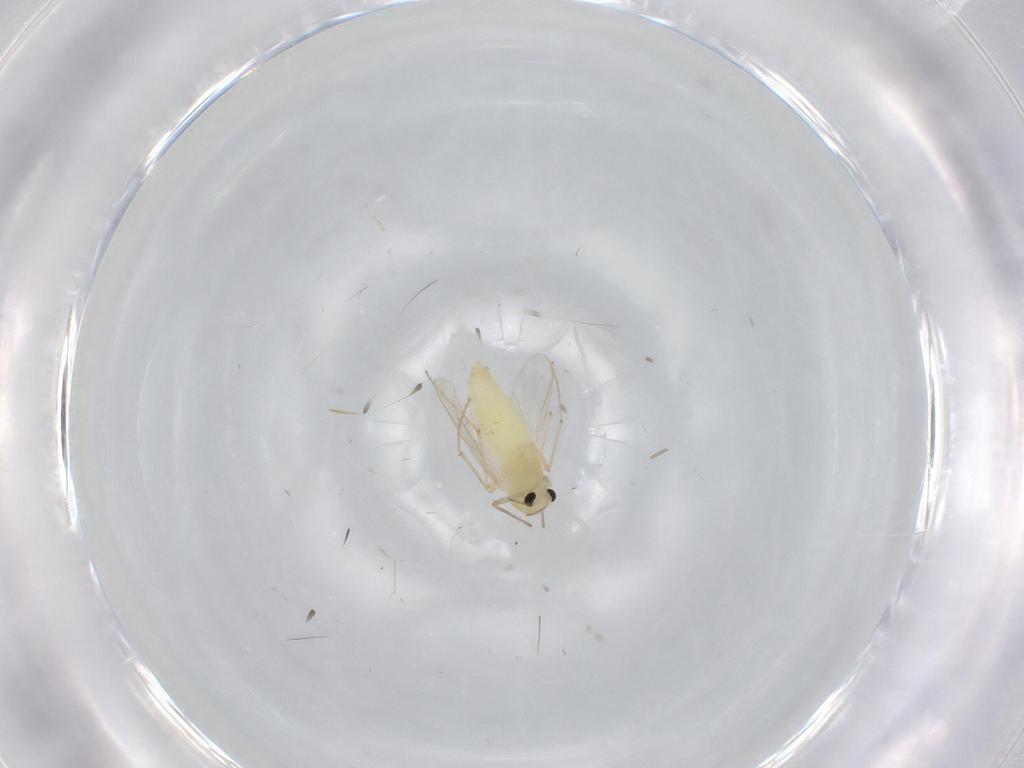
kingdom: Animalia
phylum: Arthropoda
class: Insecta
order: Diptera
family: Chironomidae
